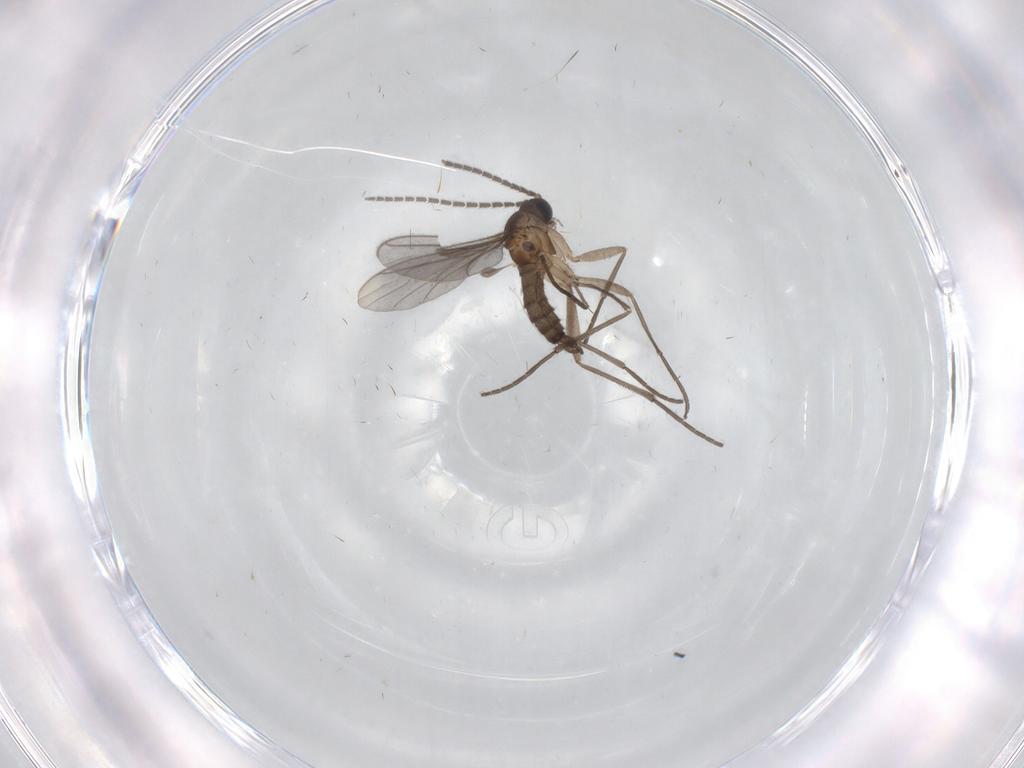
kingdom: Animalia
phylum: Arthropoda
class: Insecta
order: Diptera
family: Sciaridae
